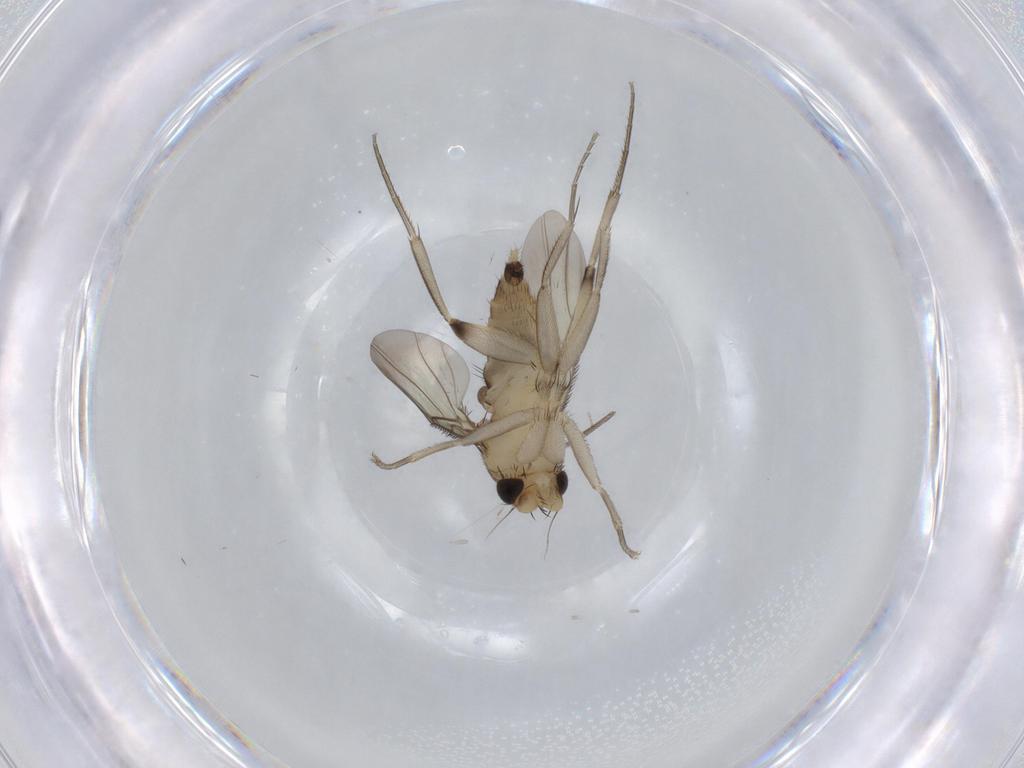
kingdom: Animalia
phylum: Arthropoda
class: Insecta
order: Diptera
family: Phoridae
